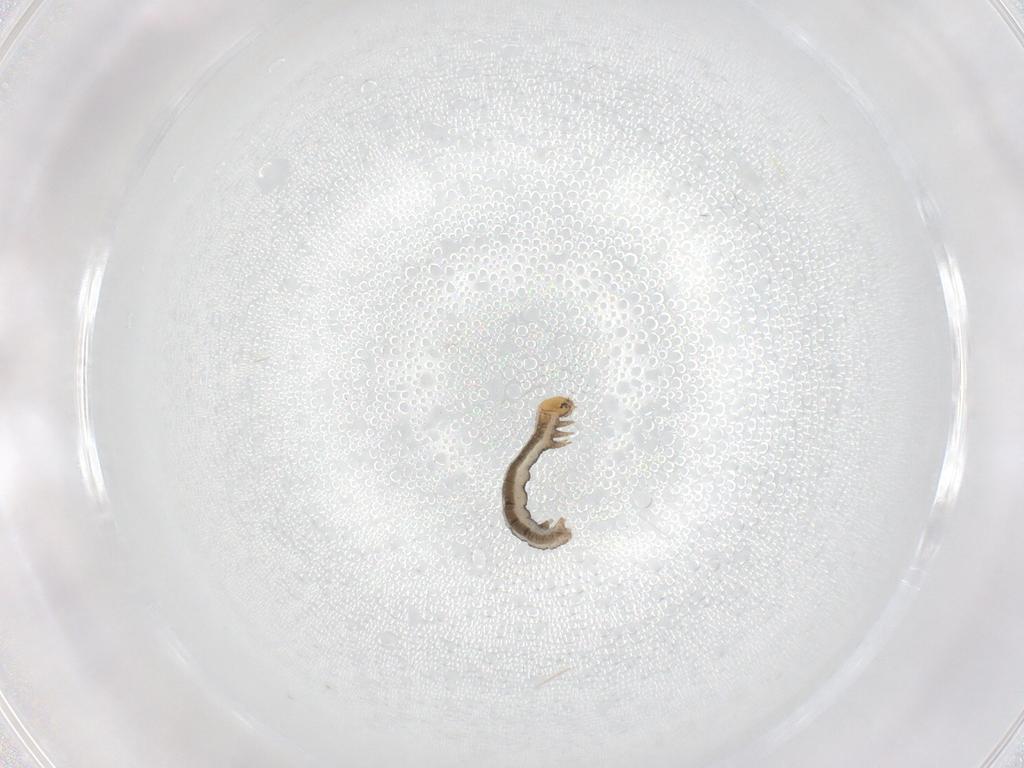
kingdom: Animalia
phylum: Arthropoda
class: Insecta
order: Lepidoptera
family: Geometridae
